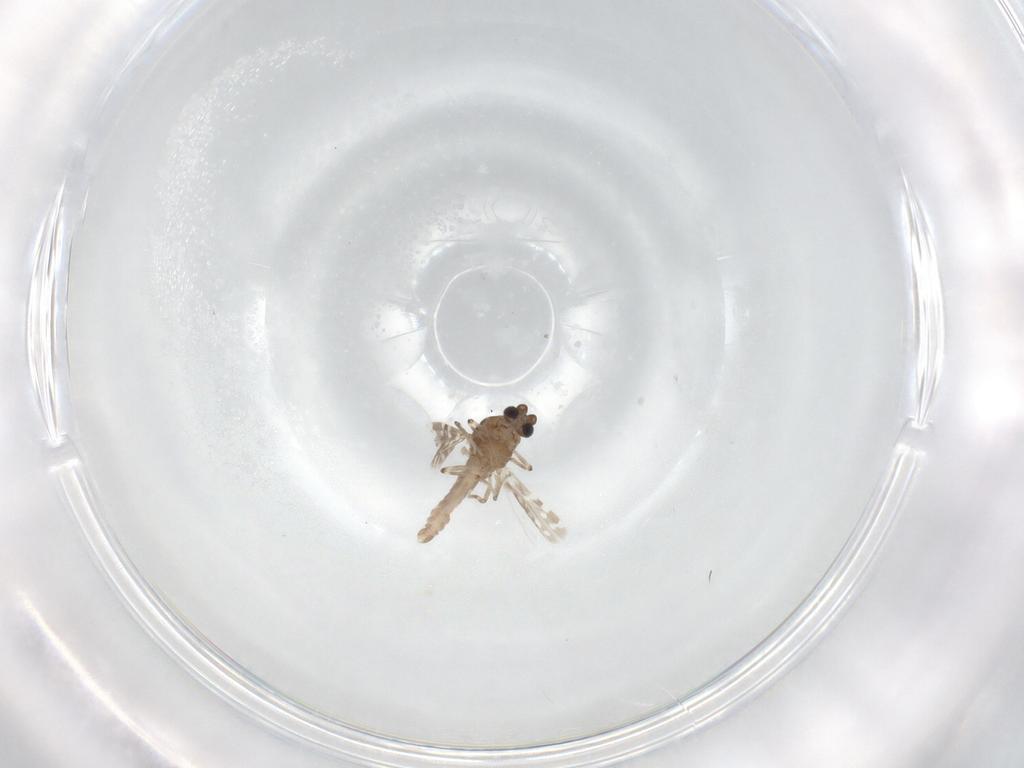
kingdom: Animalia
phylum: Arthropoda
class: Insecta
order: Diptera
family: Ceratopogonidae
